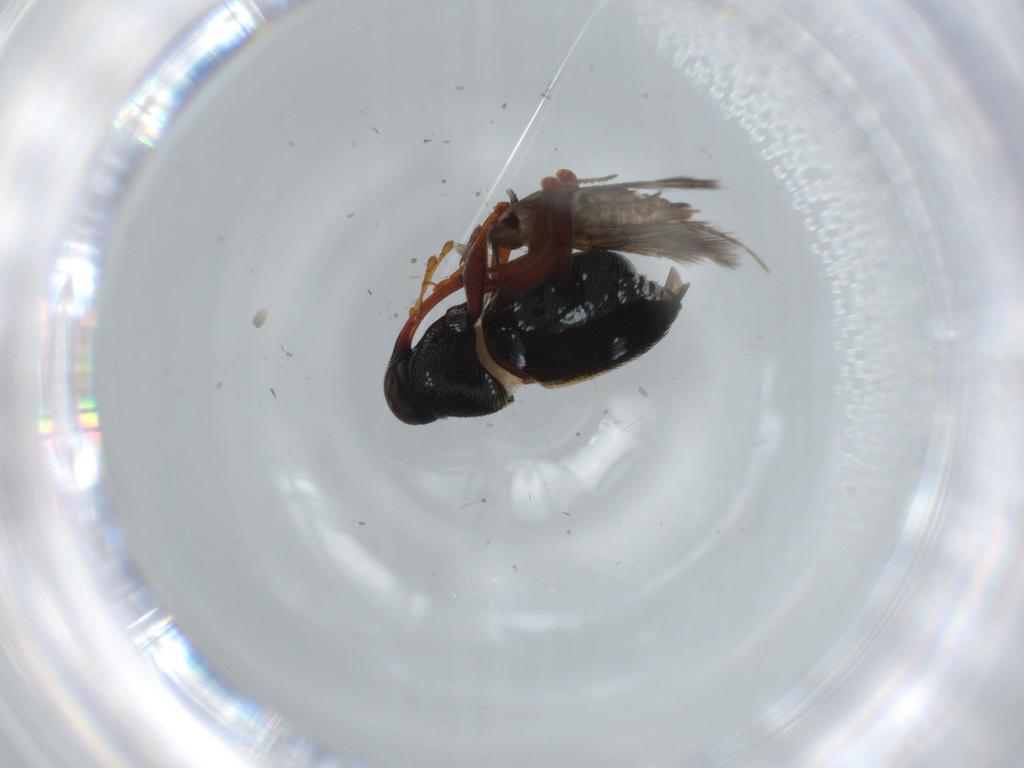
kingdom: Animalia
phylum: Arthropoda
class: Insecta
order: Coleoptera
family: Curculionidae
